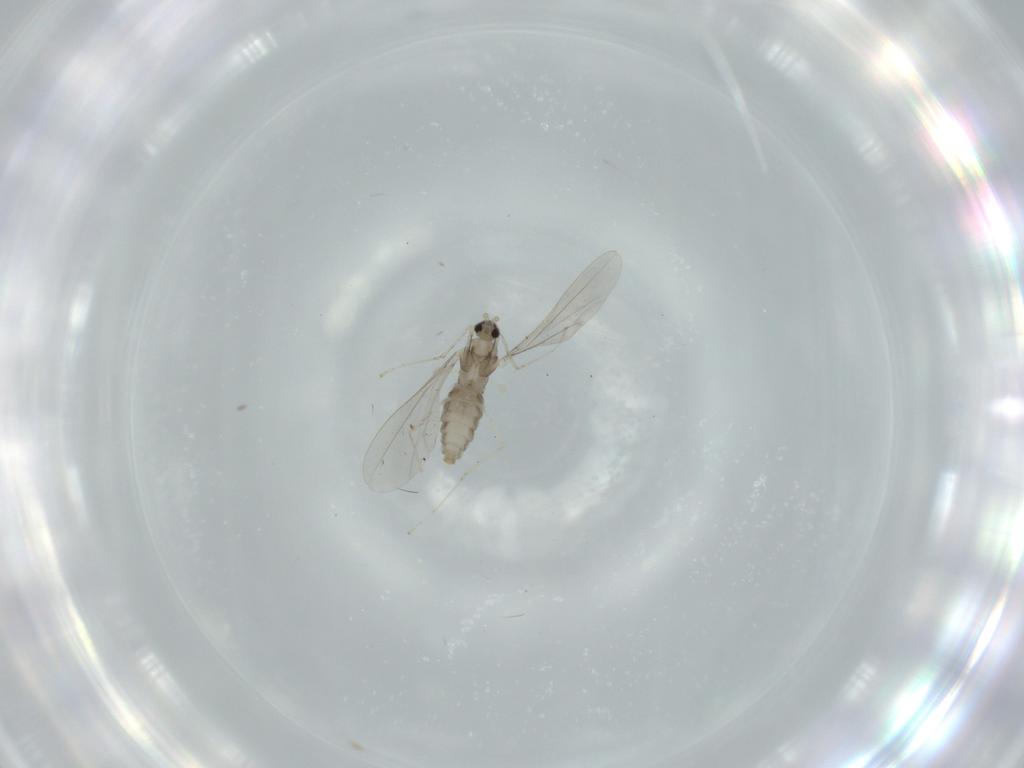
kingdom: Animalia
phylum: Arthropoda
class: Insecta
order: Diptera
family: Cecidomyiidae
